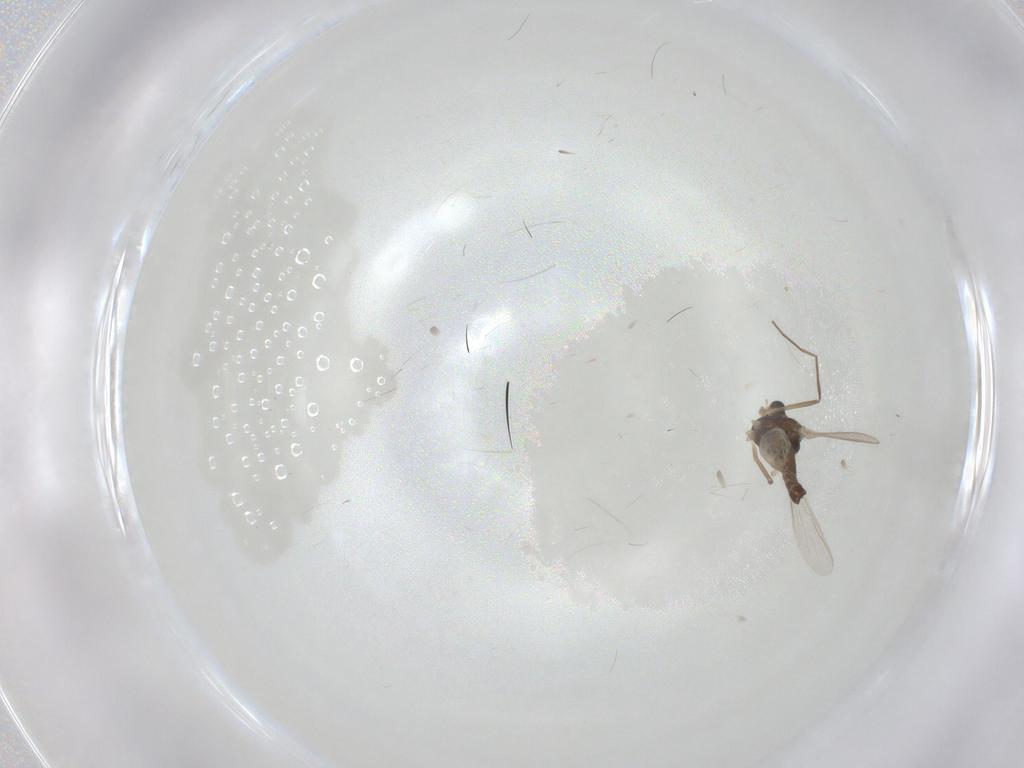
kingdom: Animalia
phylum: Arthropoda
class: Insecta
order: Diptera
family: Chironomidae
